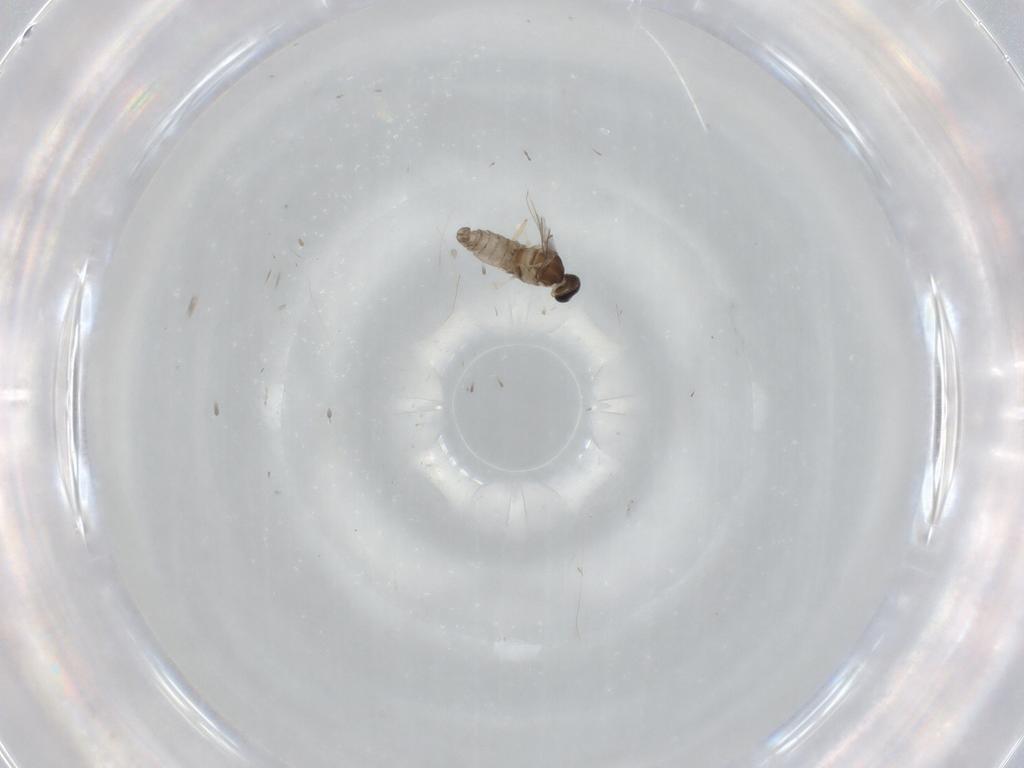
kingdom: Animalia
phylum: Arthropoda
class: Insecta
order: Diptera
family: Cecidomyiidae
